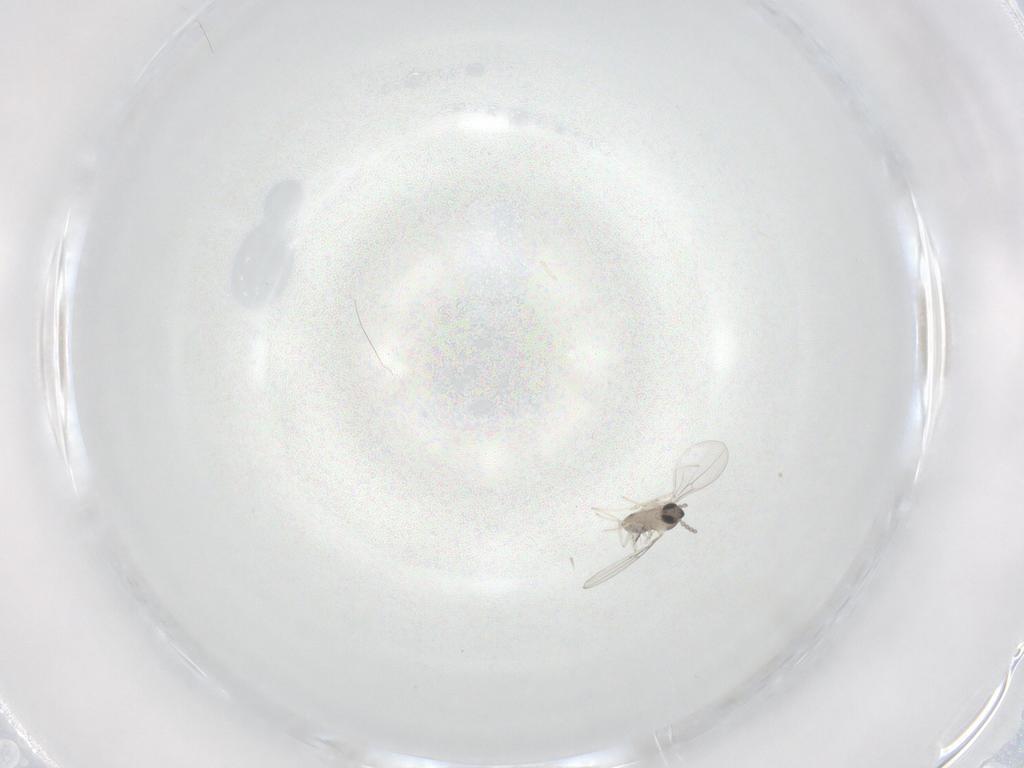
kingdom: Animalia
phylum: Arthropoda
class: Insecta
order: Diptera
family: Cecidomyiidae
